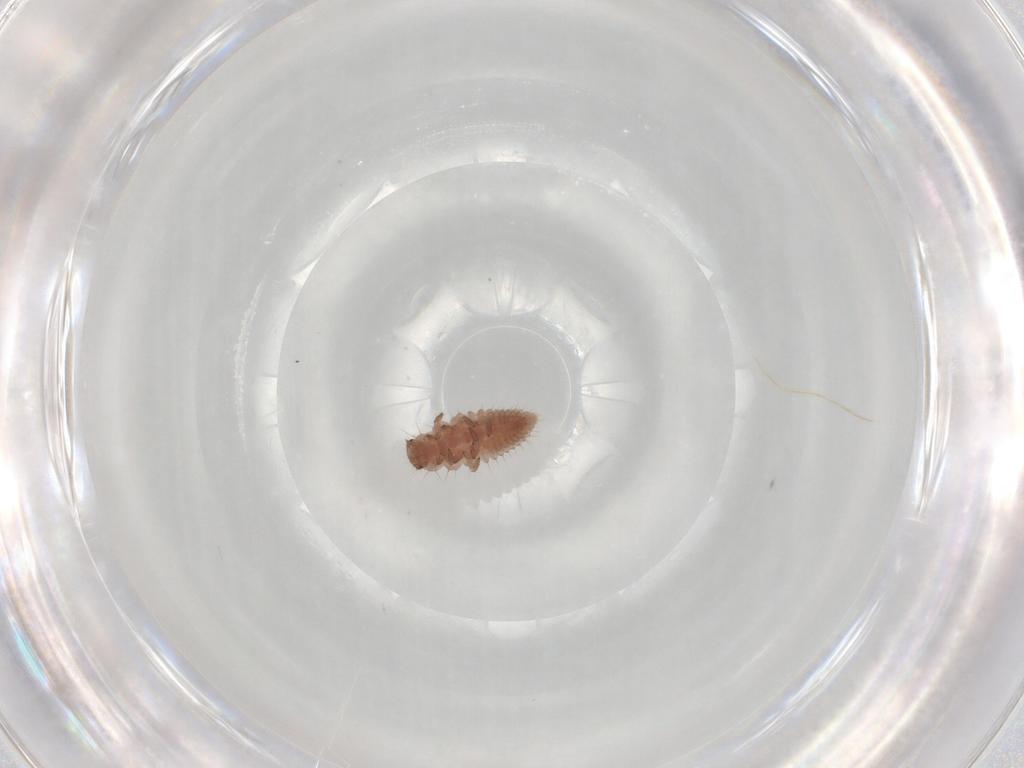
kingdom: Animalia
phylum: Arthropoda
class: Insecta
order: Coleoptera
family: Coccinellidae
